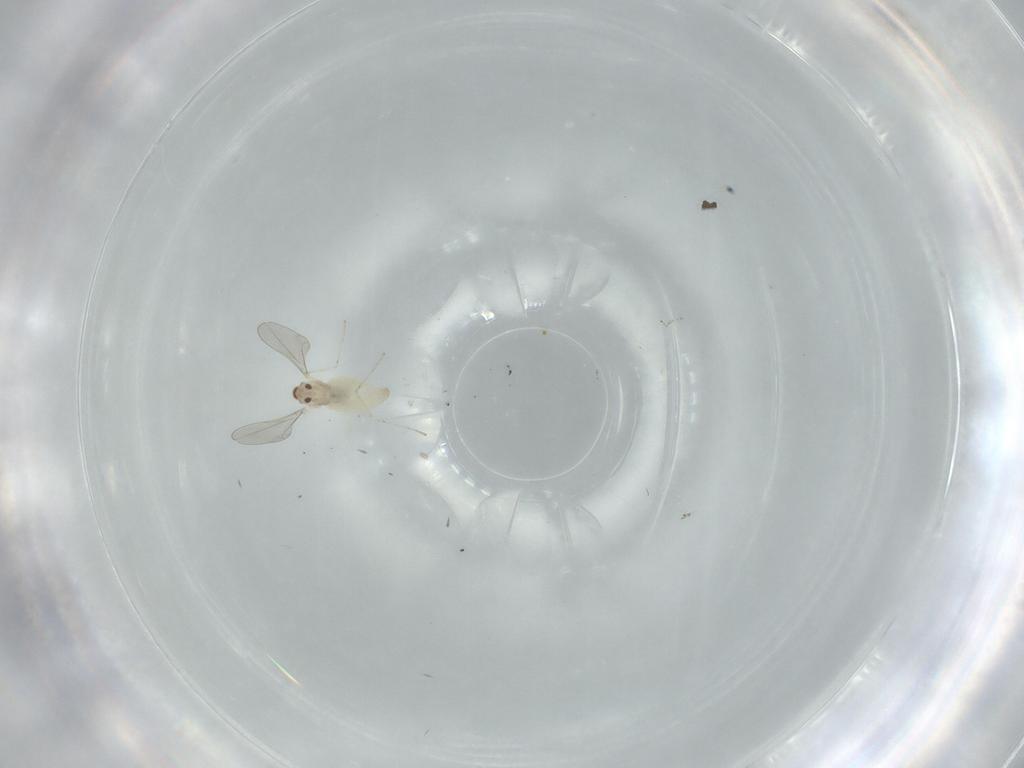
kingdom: Animalia
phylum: Arthropoda
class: Insecta
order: Diptera
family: Cecidomyiidae
